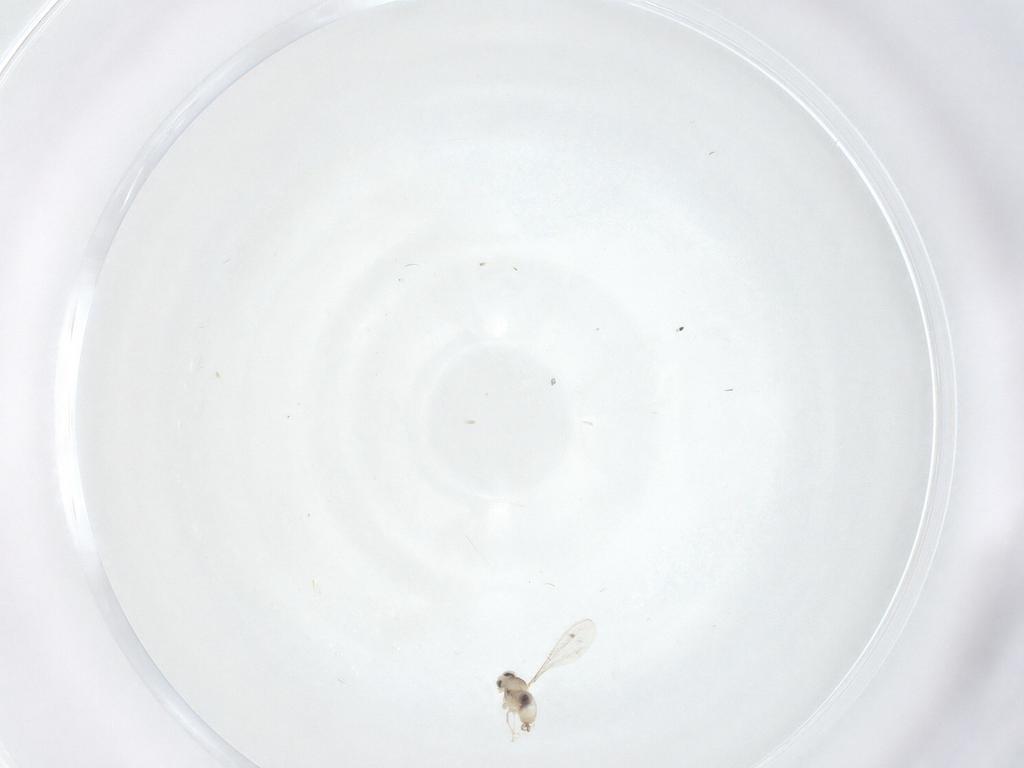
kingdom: Animalia
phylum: Arthropoda
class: Insecta
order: Diptera
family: Cecidomyiidae
